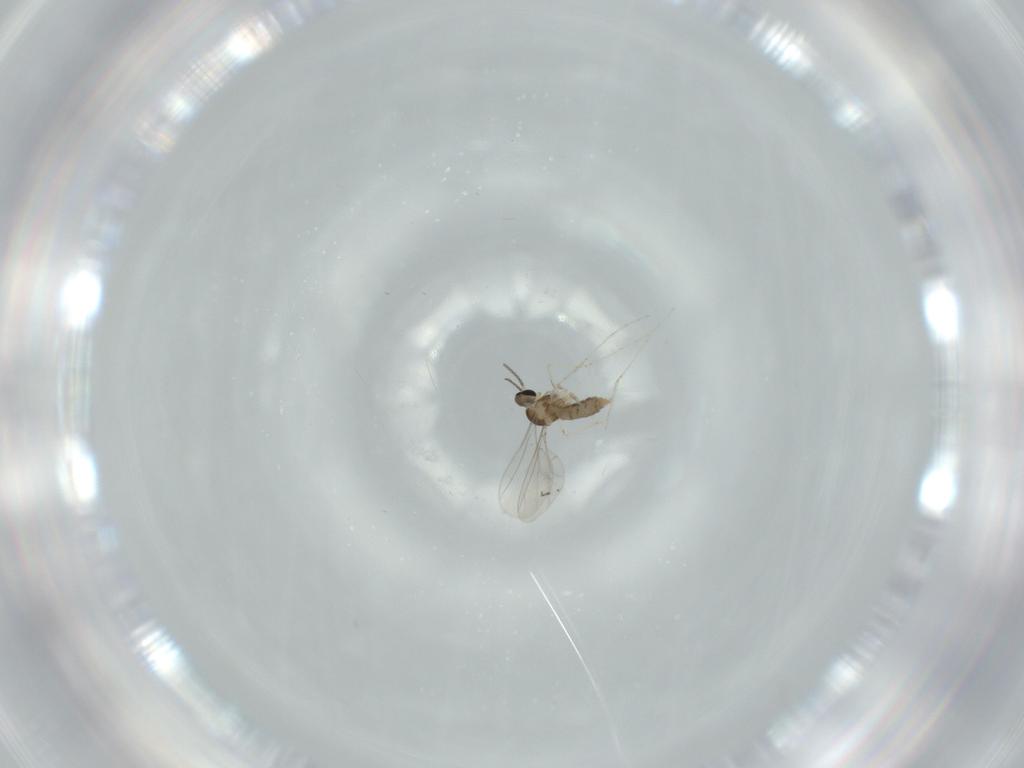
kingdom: Animalia
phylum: Arthropoda
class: Insecta
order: Diptera
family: Cecidomyiidae
